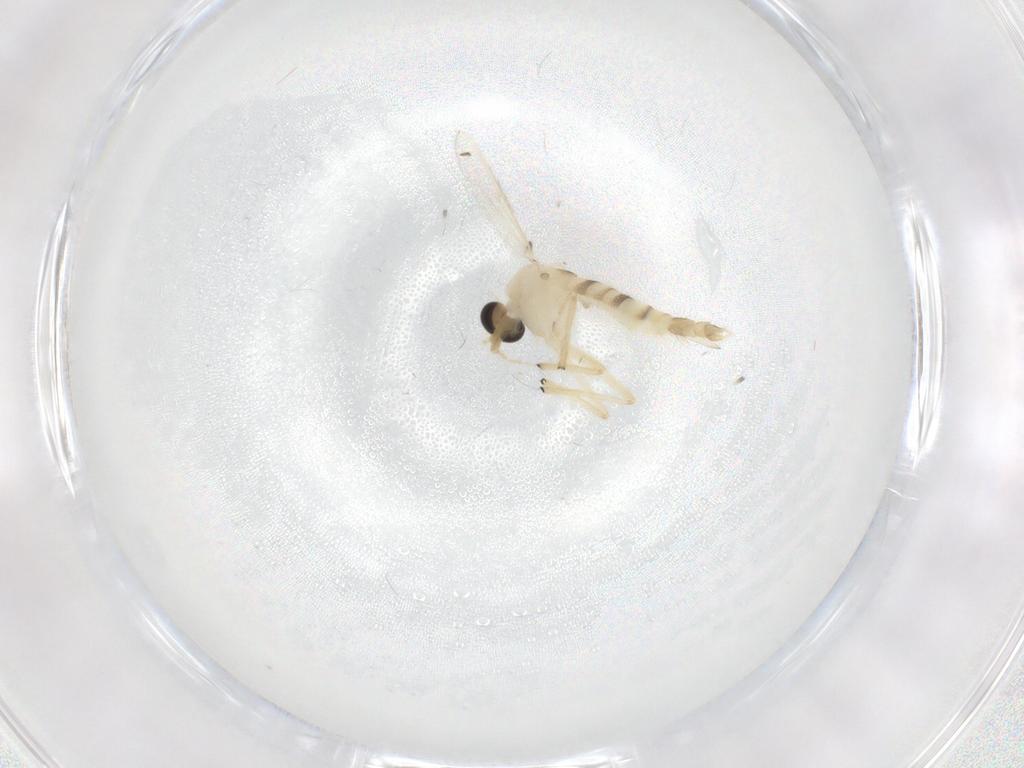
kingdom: Animalia
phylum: Arthropoda
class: Insecta
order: Diptera
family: Chironomidae
